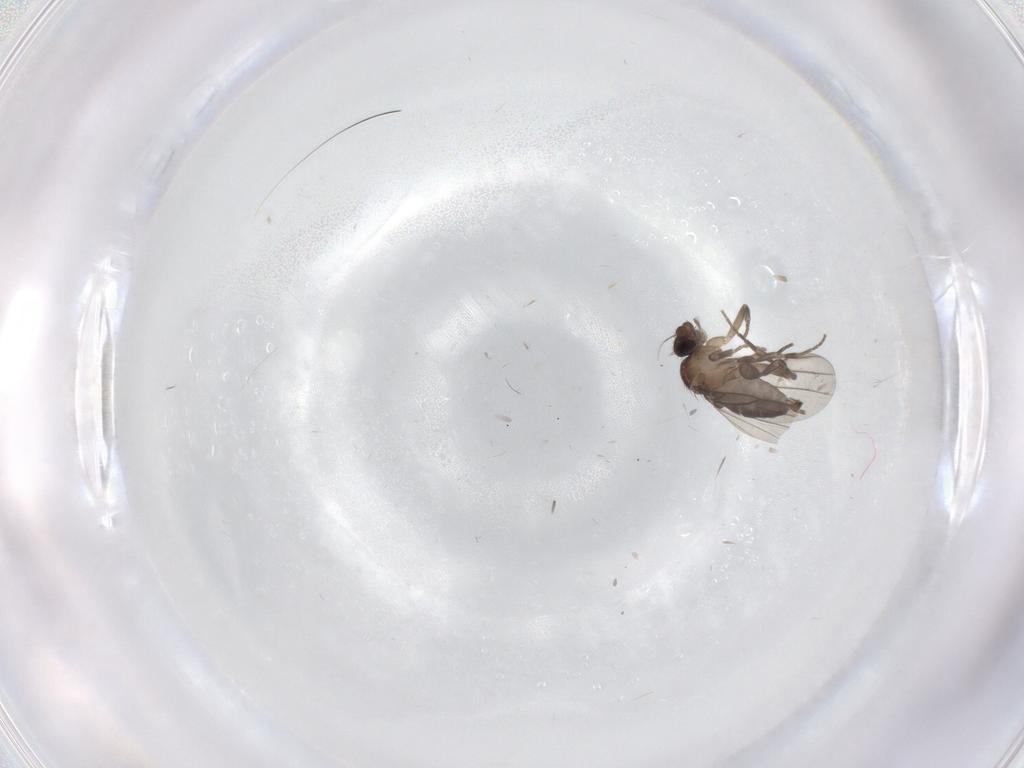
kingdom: Animalia
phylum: Arthropoda
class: Insecta
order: Diptera
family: Phoridae
